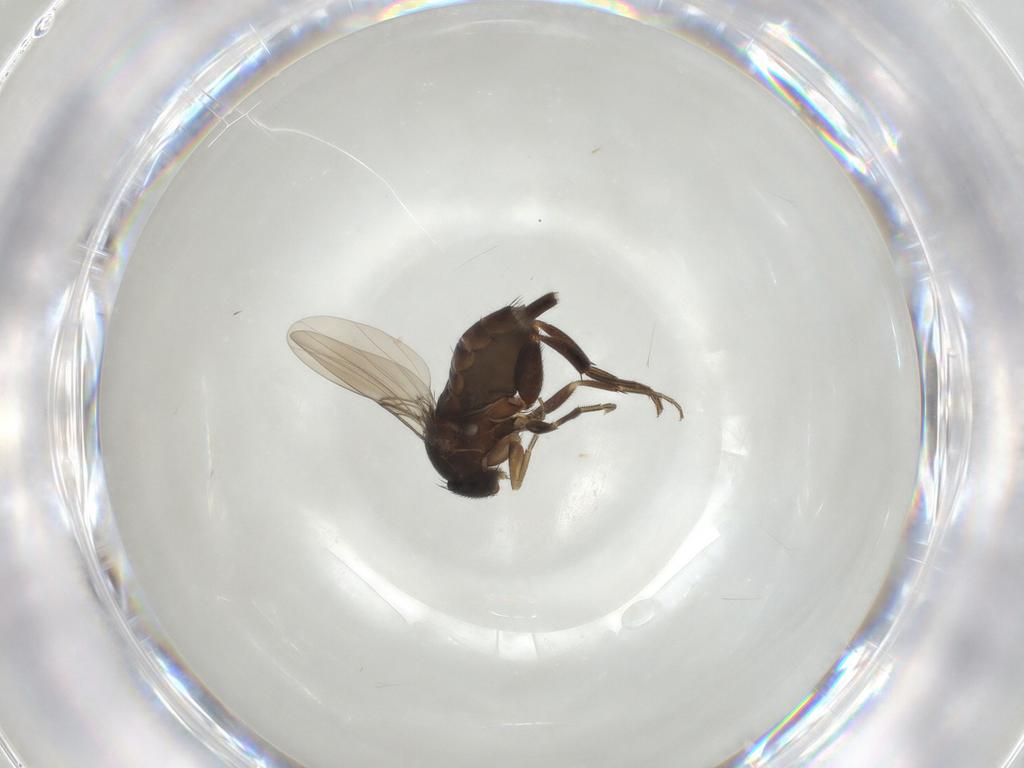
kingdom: Animalia
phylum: Arthropoda
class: Insecta
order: Diptera
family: Phoridae
